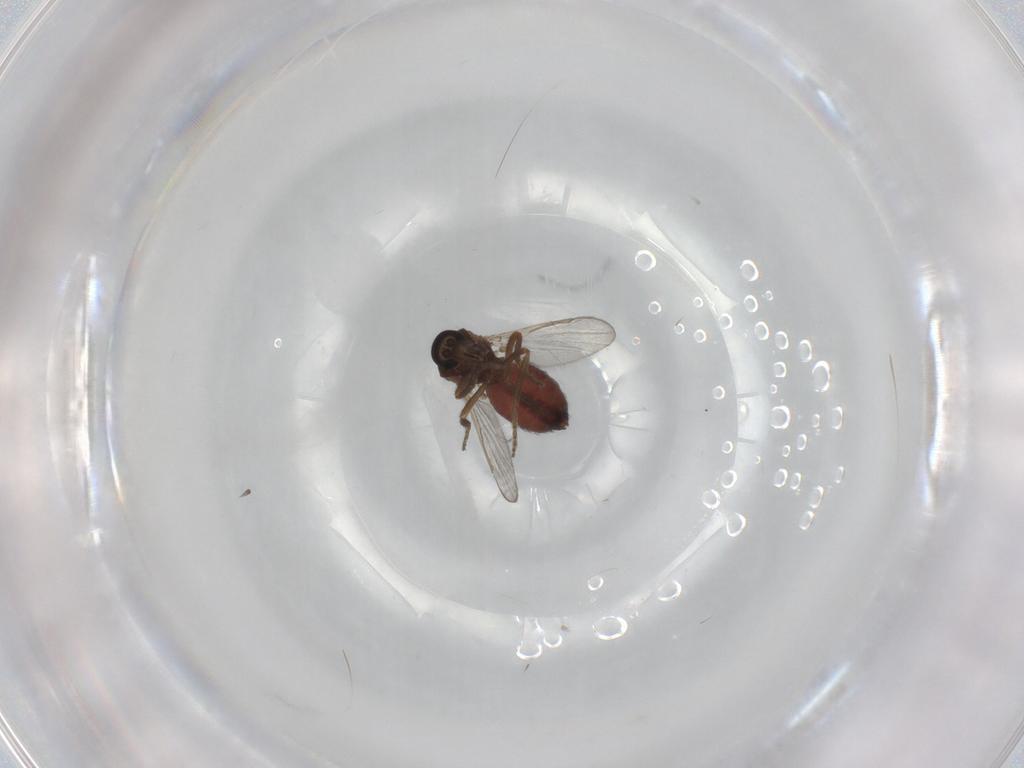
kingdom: Animalia
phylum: Arthropoda
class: Insecta
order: Diptera
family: Ceratopogonidae
